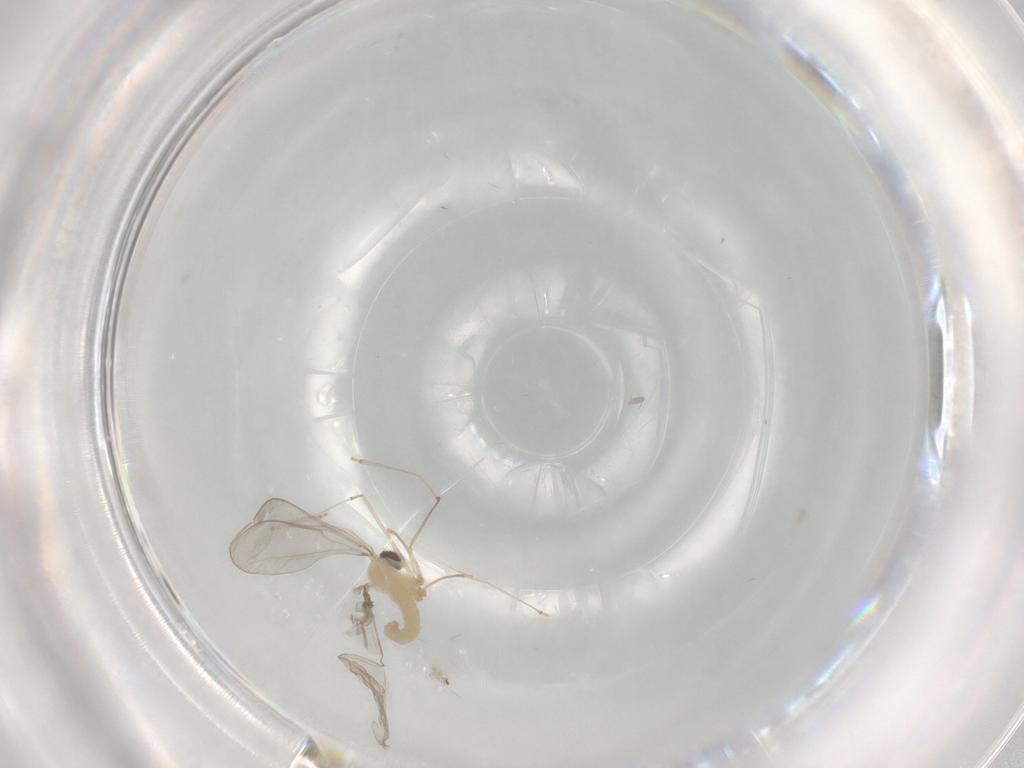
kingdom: Animalia
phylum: Arthropoda
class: Insecta
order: Diptera
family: Cecidomyiidae
